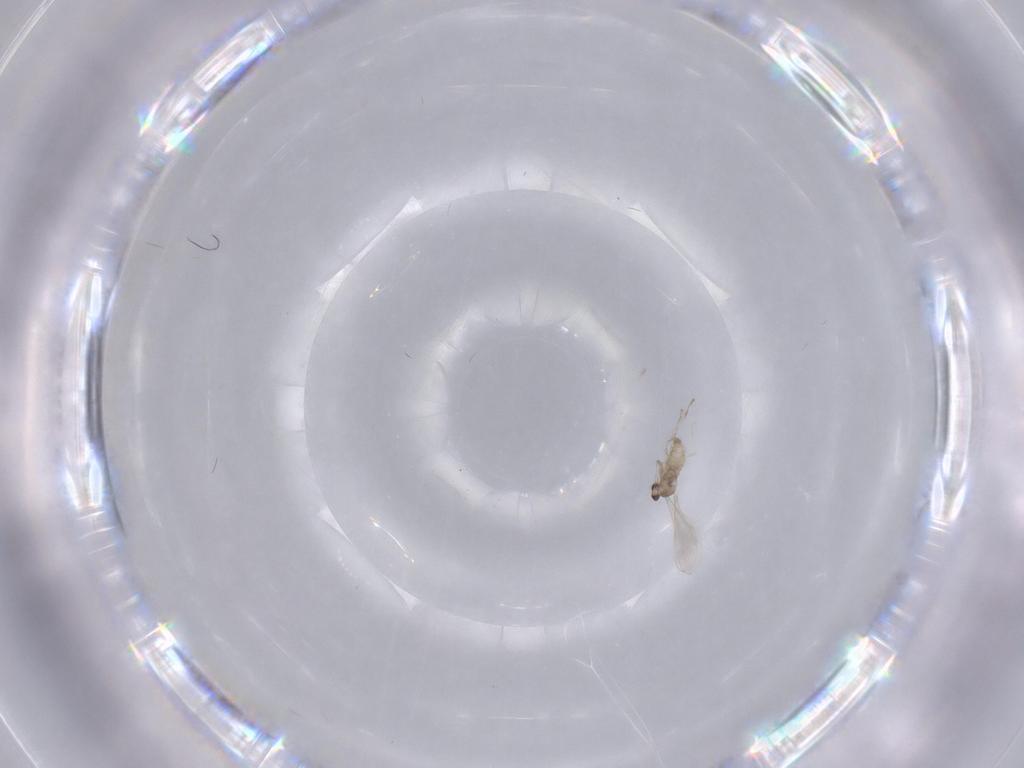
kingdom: Animalia
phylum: Arthropoda
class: Insecta
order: Diptera
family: Cecidomyiidae
